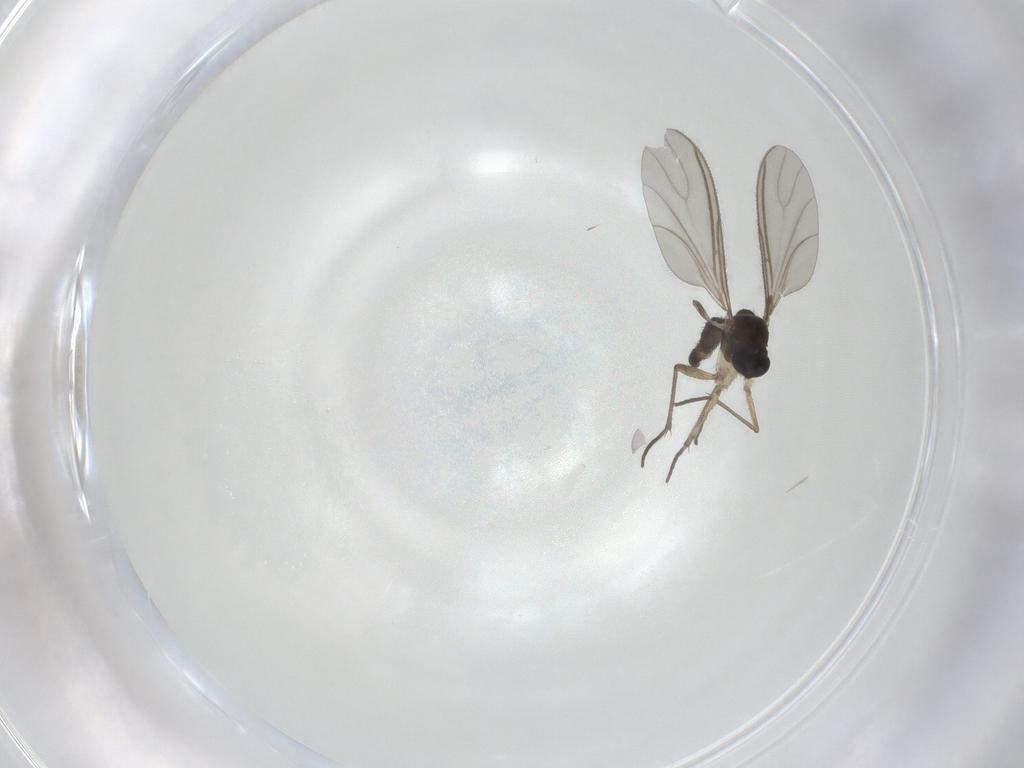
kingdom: Animalia
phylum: Arthropoda
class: Insecta
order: Diptera
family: Sciaridae
